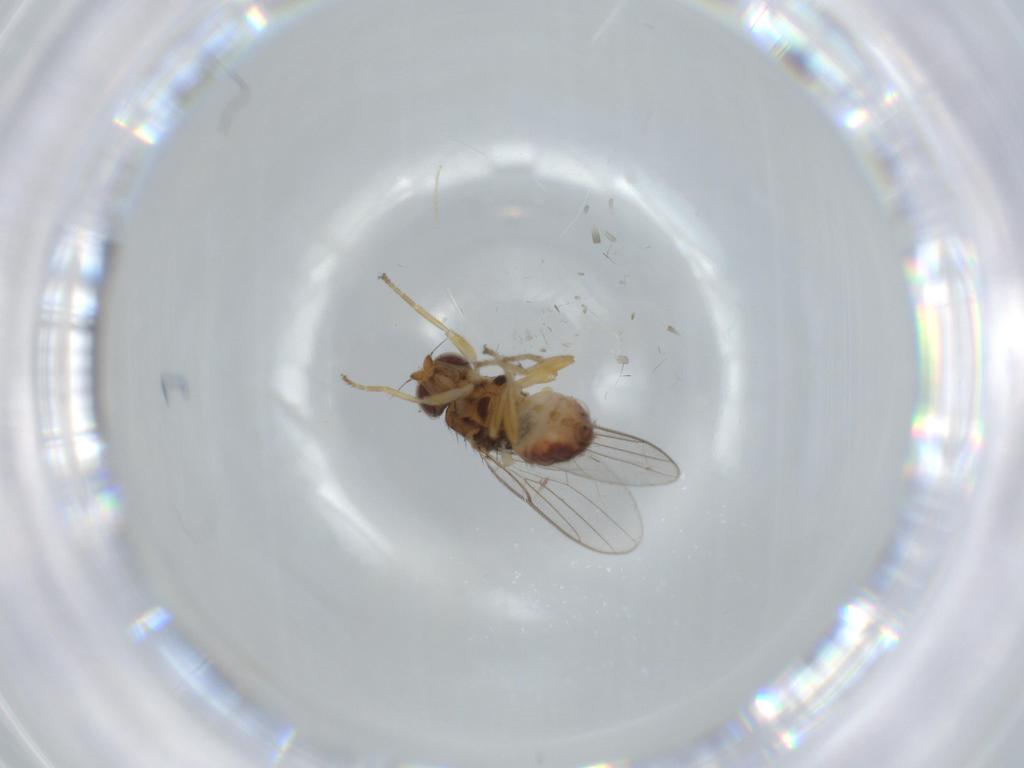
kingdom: Animalia
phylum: Arthropoda
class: Insecta
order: Diptera
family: Chloropidae
